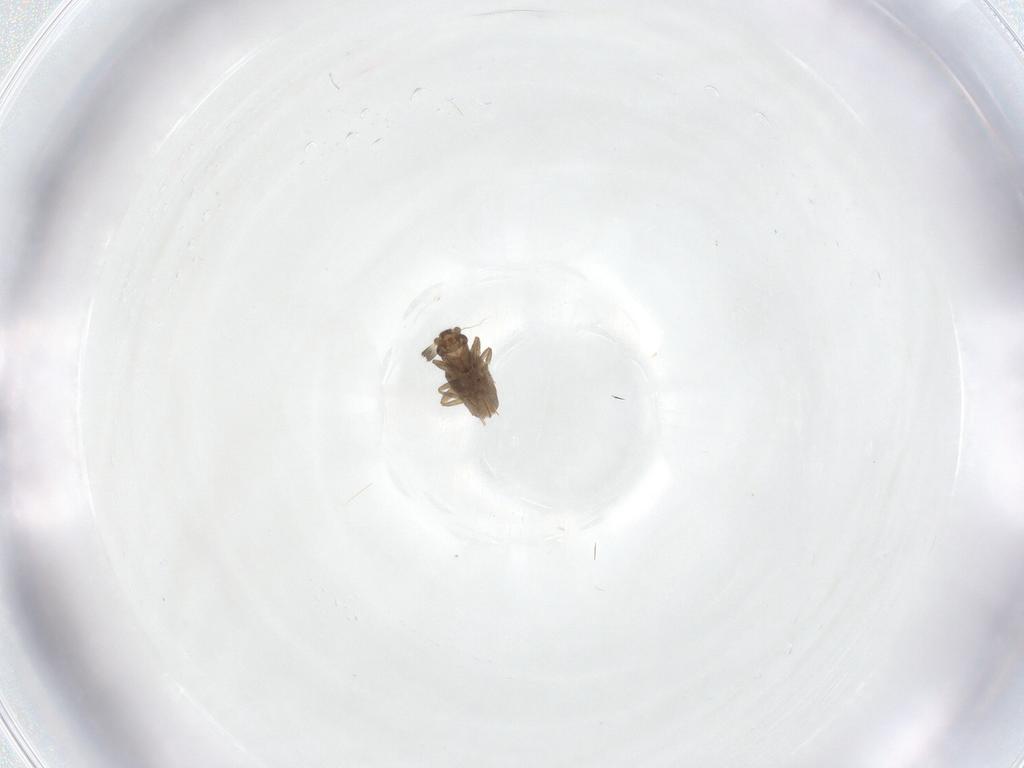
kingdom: Animalia
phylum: Arthropoda
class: Insecta
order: Diptera
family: Phoridae
